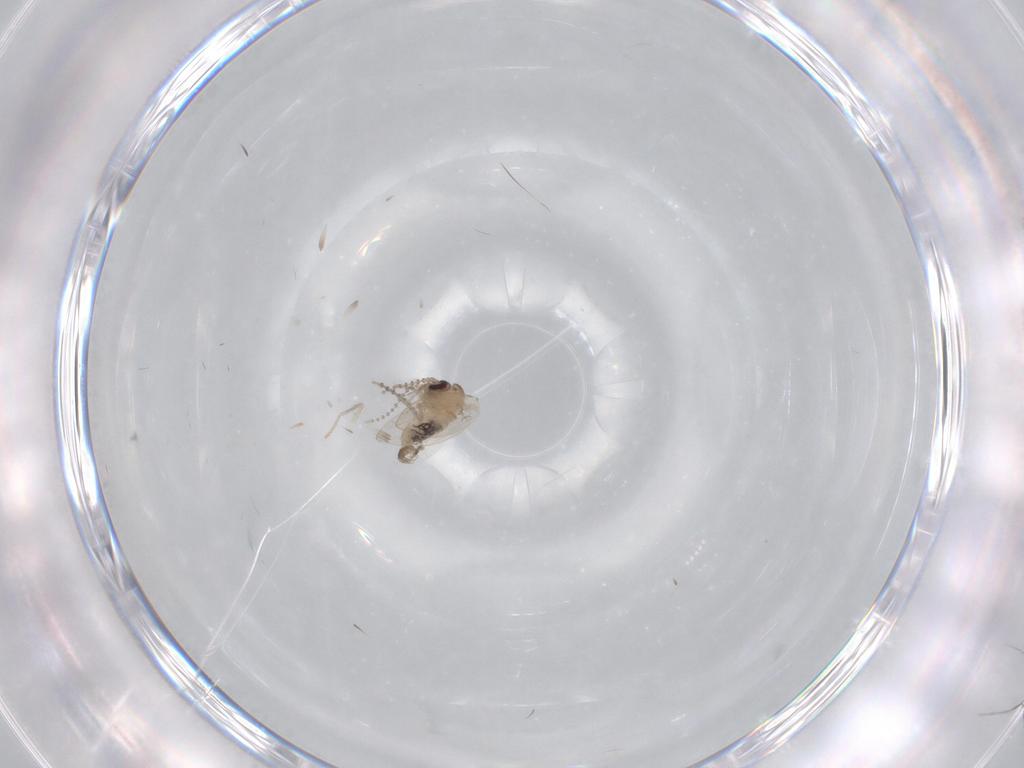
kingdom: Animalia
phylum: Arthropoda
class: Insecta
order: Diptera
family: Psychodidae
